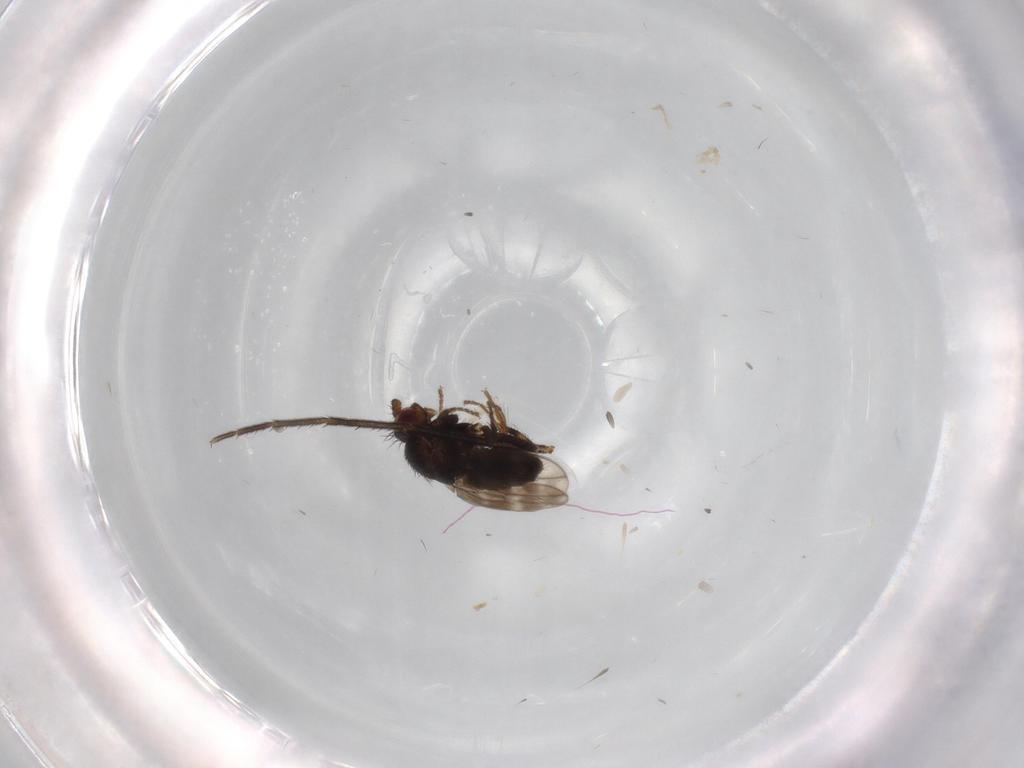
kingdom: Animalia
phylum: Arthropoda
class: Insecta
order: Diptera
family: Sphaeroceridae
